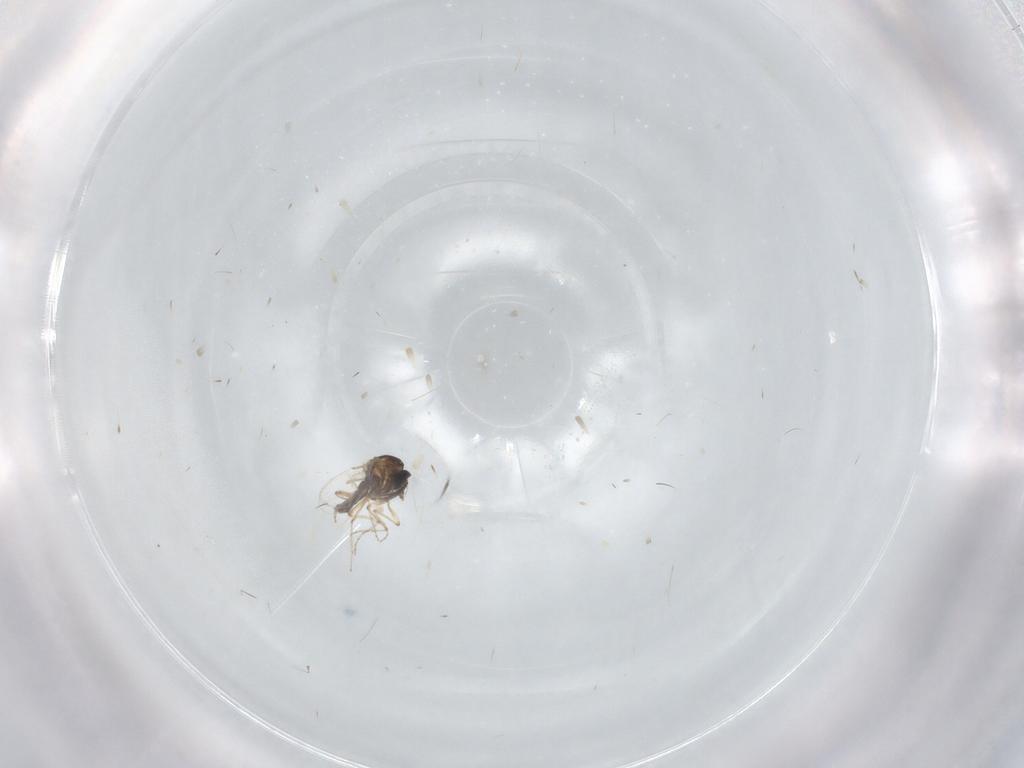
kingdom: Animalia
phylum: Arthropoda
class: Insecta
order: Diptera
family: Ceratopogonidae
